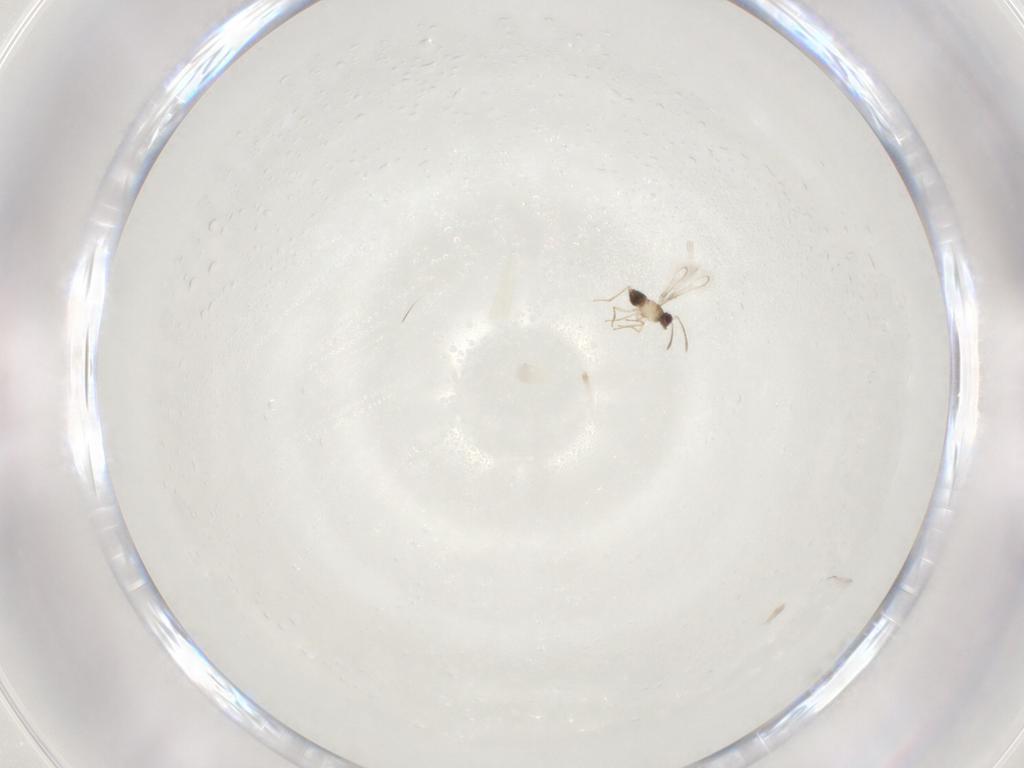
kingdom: Animalia
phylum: Arthropoda
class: Insecta
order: Hymenoptera
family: Mymaridae
